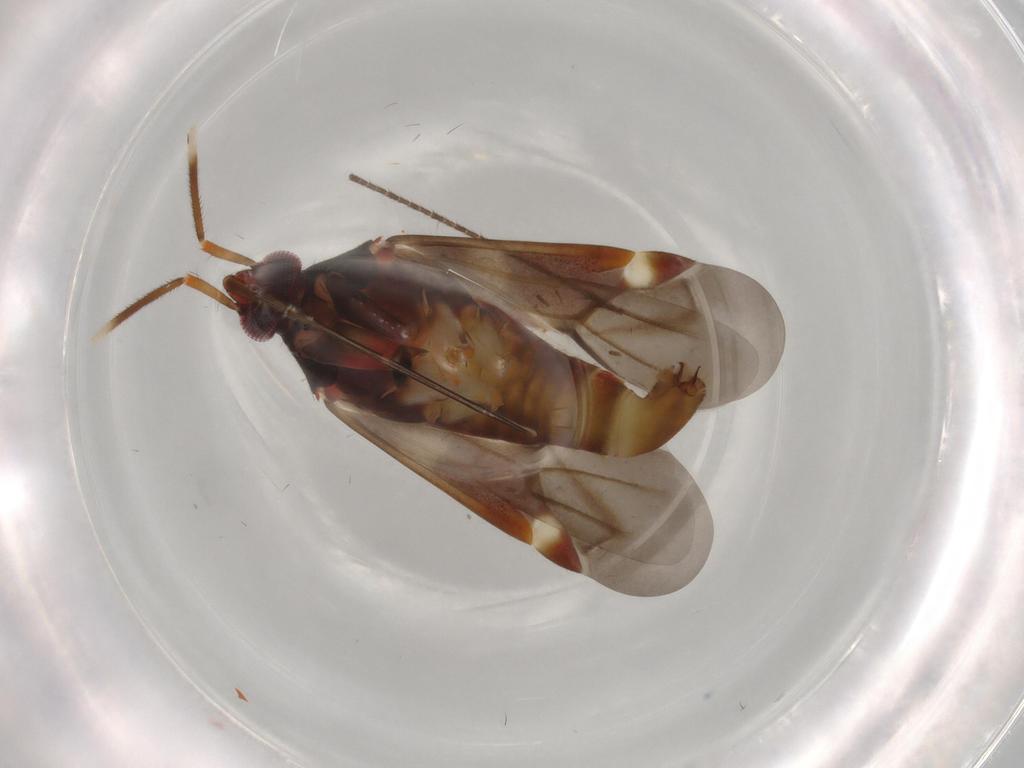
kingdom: Animalia
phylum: Arthropoda
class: Insecta
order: Hemiptera
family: Miridae
